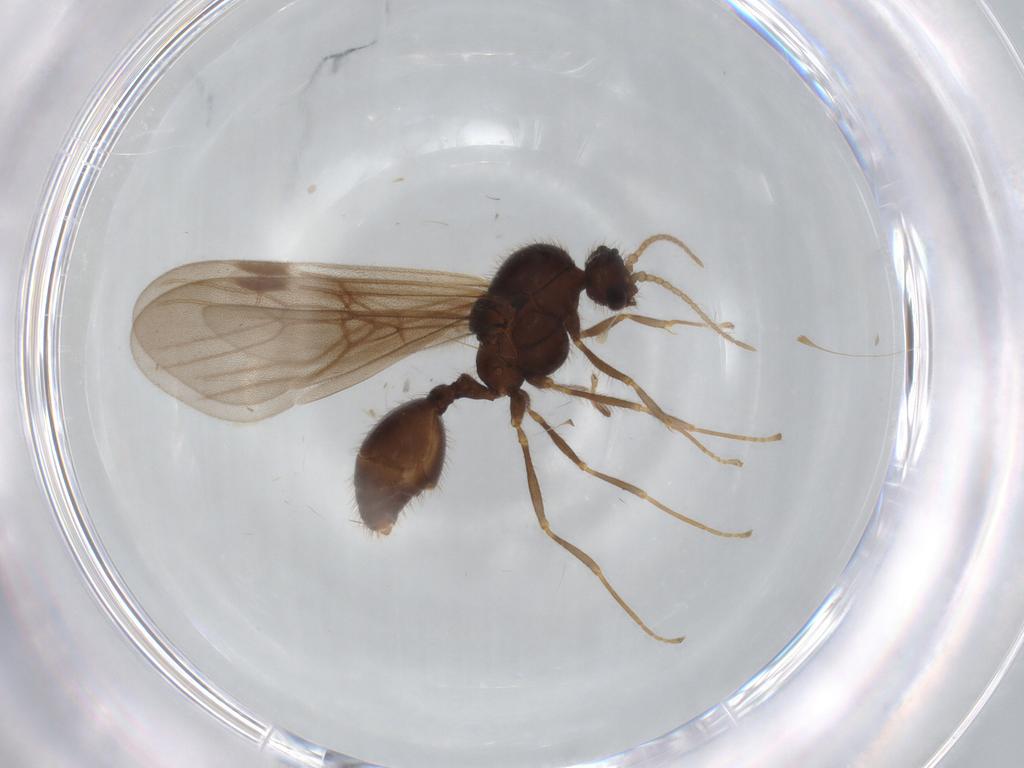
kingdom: Animalia
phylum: Arthropoda
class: Insecta
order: Hymenoptera
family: Formicidae
